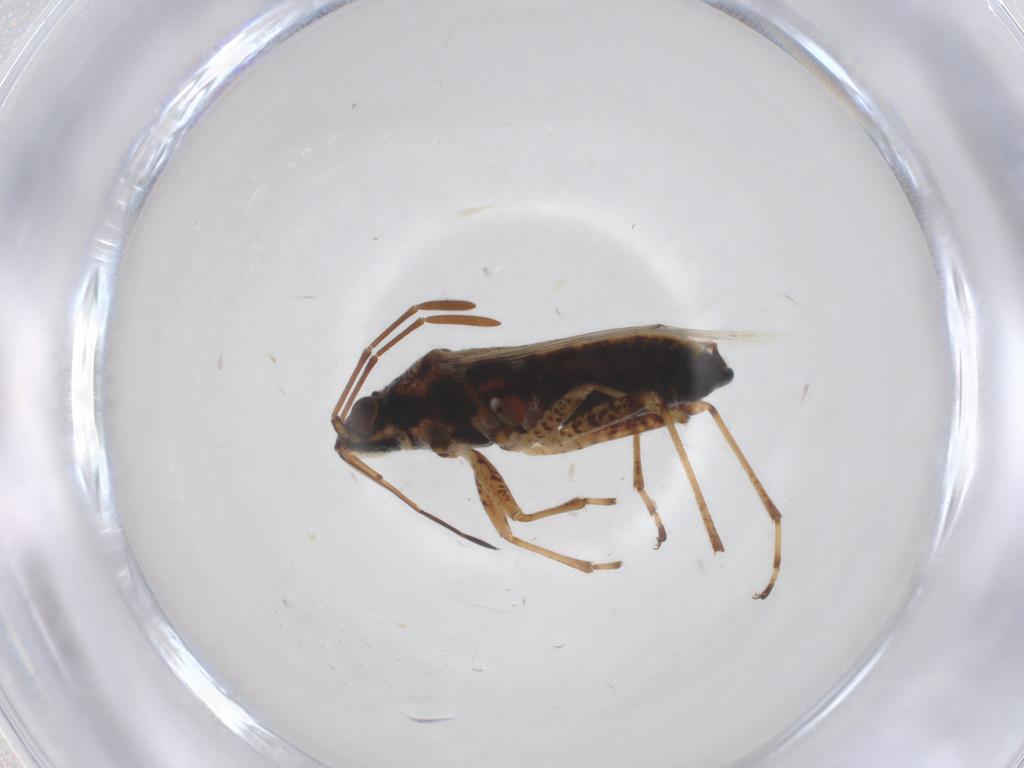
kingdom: Animalia
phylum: Arthropoda
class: Insecta
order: Hemiptera
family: Lygaeidae
